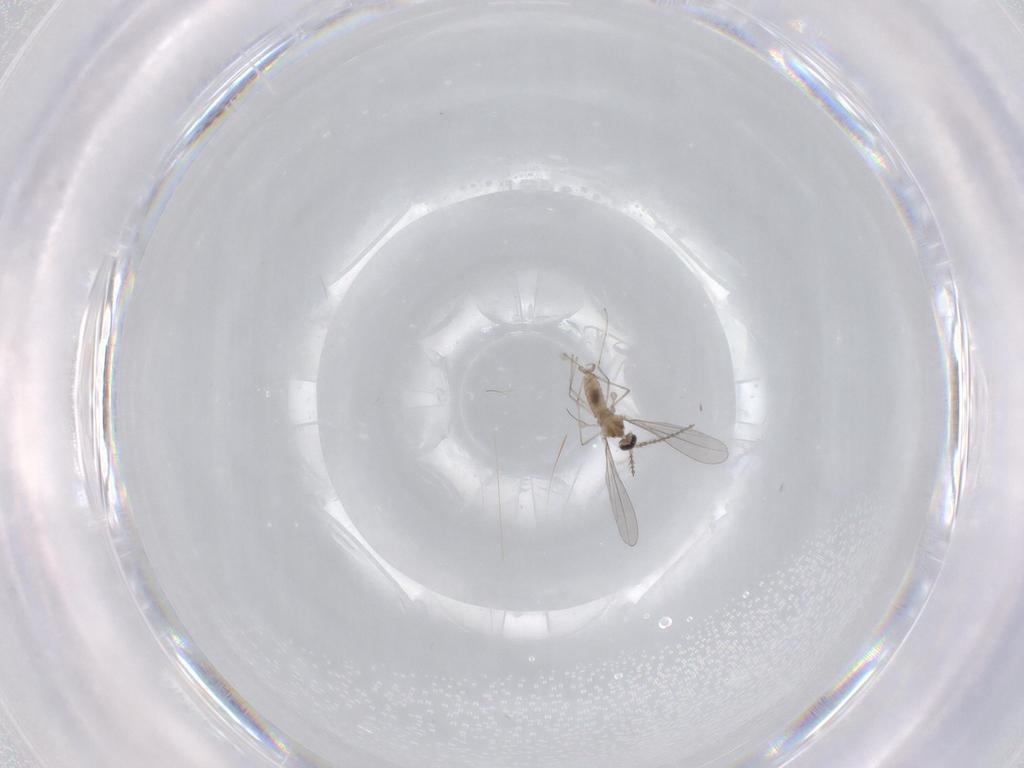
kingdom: Animalia
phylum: Arthropoda
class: Insecta
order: Diptera
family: Cecidomyiidae
